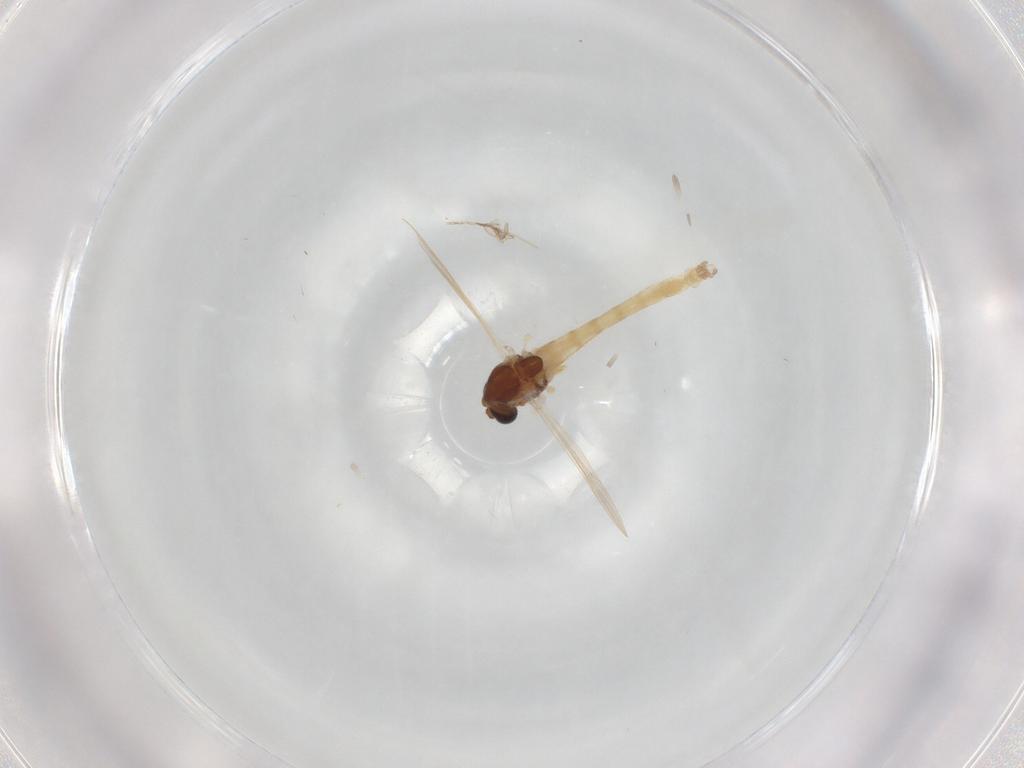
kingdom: Animalia
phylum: Arthropoda
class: Insecta
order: Diptera
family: Chironomidae
